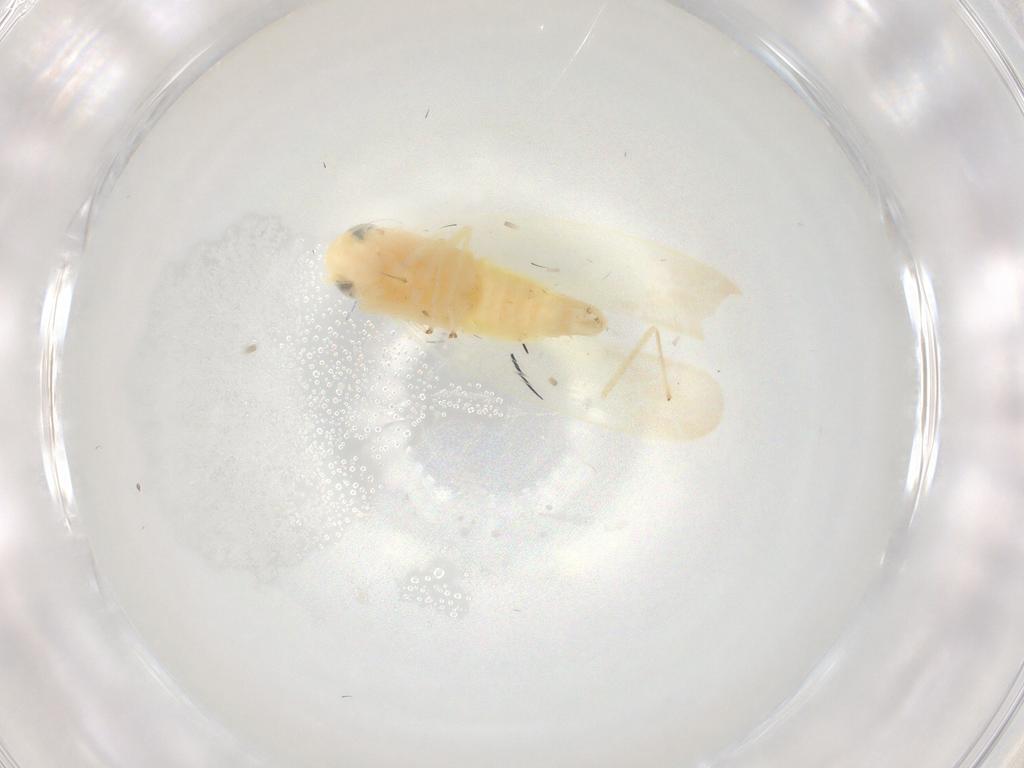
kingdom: Animalia
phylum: Arthropoda
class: Insecta
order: Hemiptera
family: Cicadellidae
